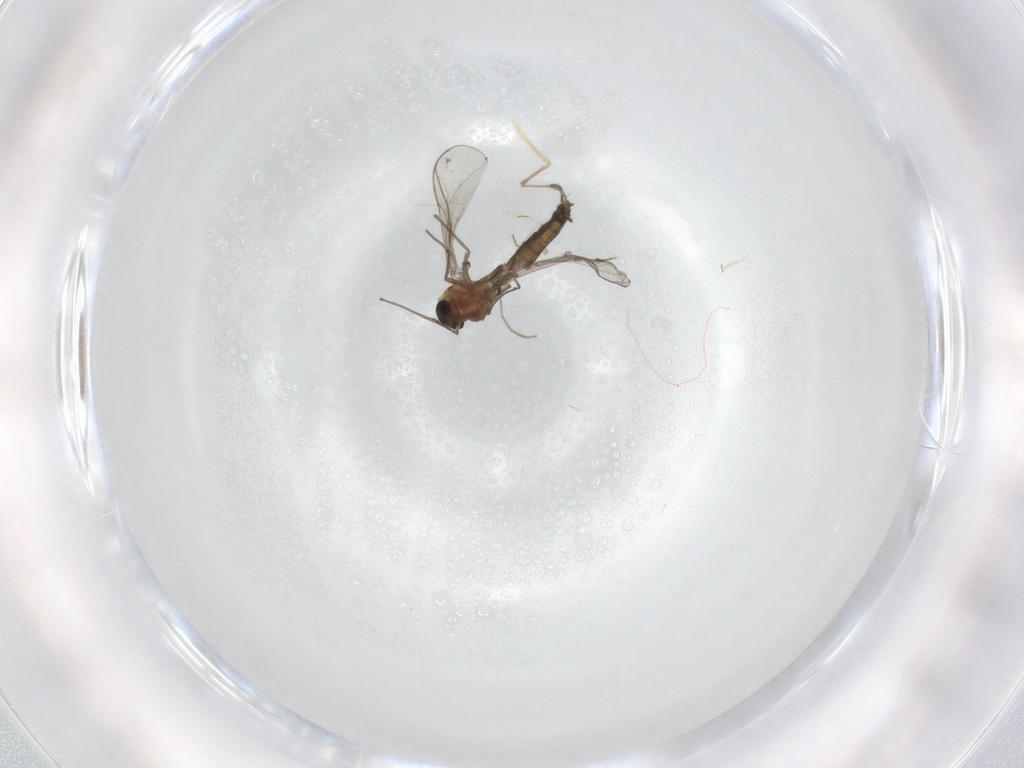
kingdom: Animalia
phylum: Arthropoda
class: Insecta
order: Diptera
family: Chironomidae
